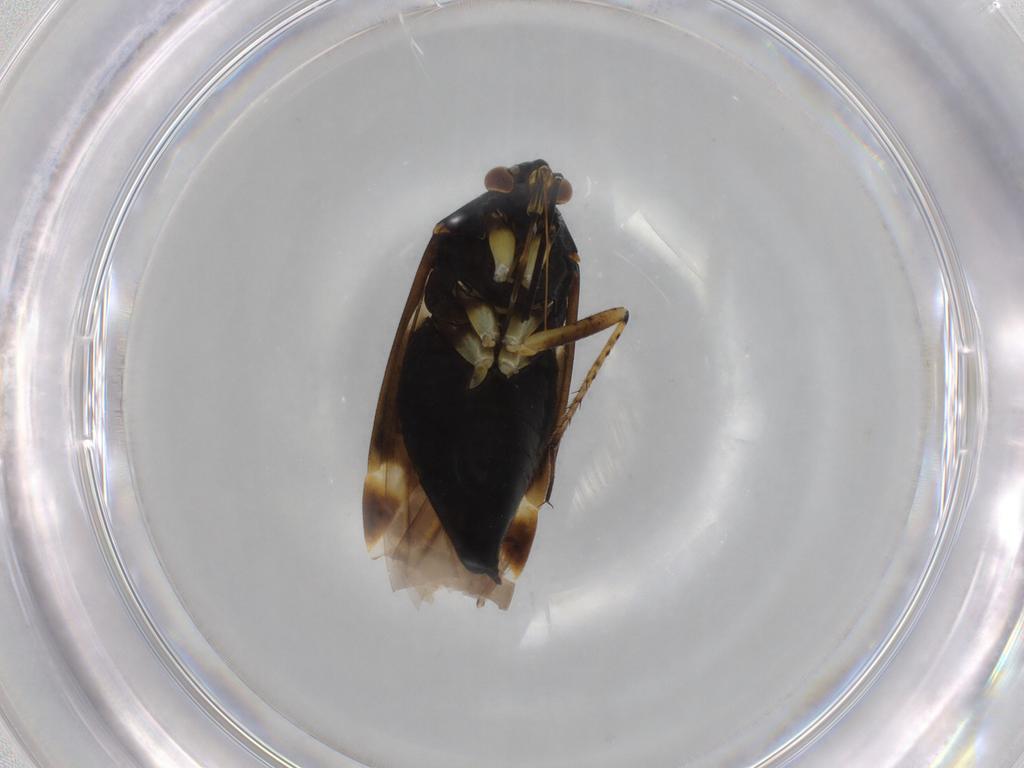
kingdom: Animalia
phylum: Arthropoda
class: Insecta
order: Hemiptera
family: Miridae
